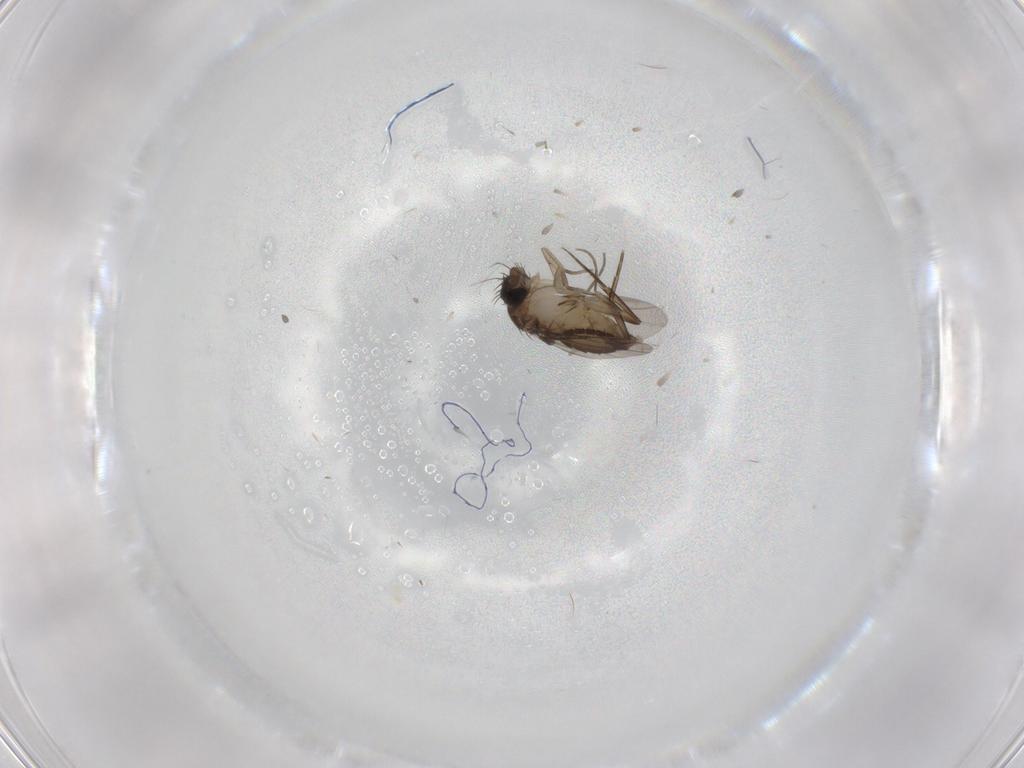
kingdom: Animalia
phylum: Arthropoda
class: Insecta
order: Diptera
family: Phoridae
